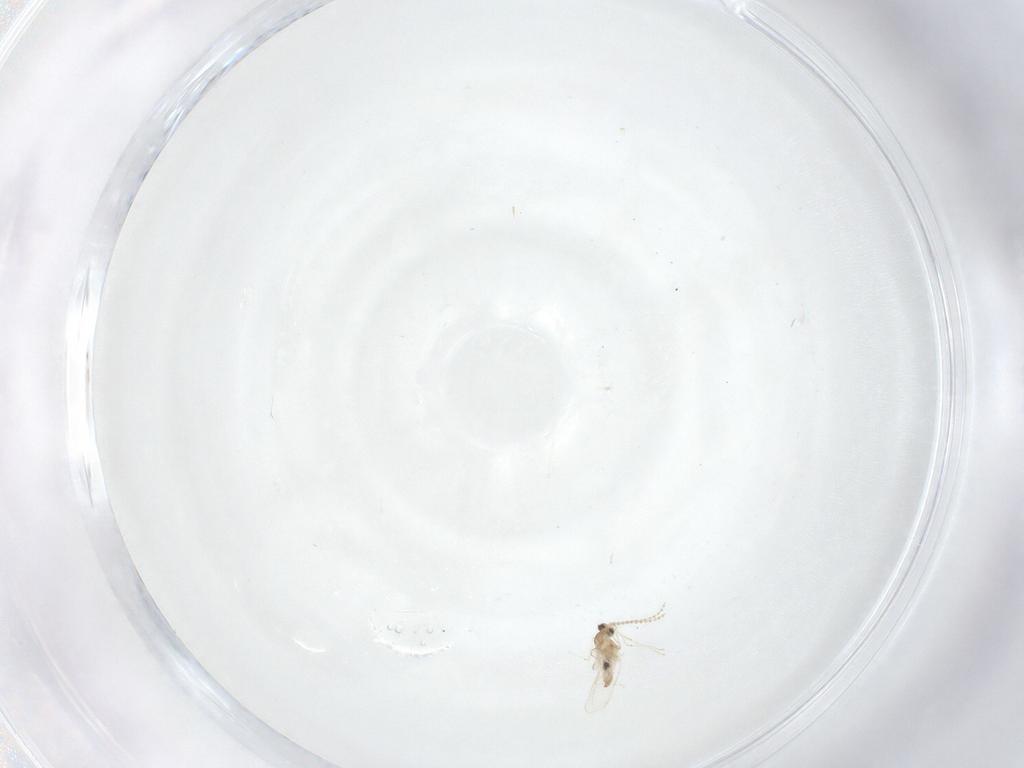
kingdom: Animalia
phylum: Arthropoda
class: Insecta
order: Diptera
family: Cecidomyiidae
